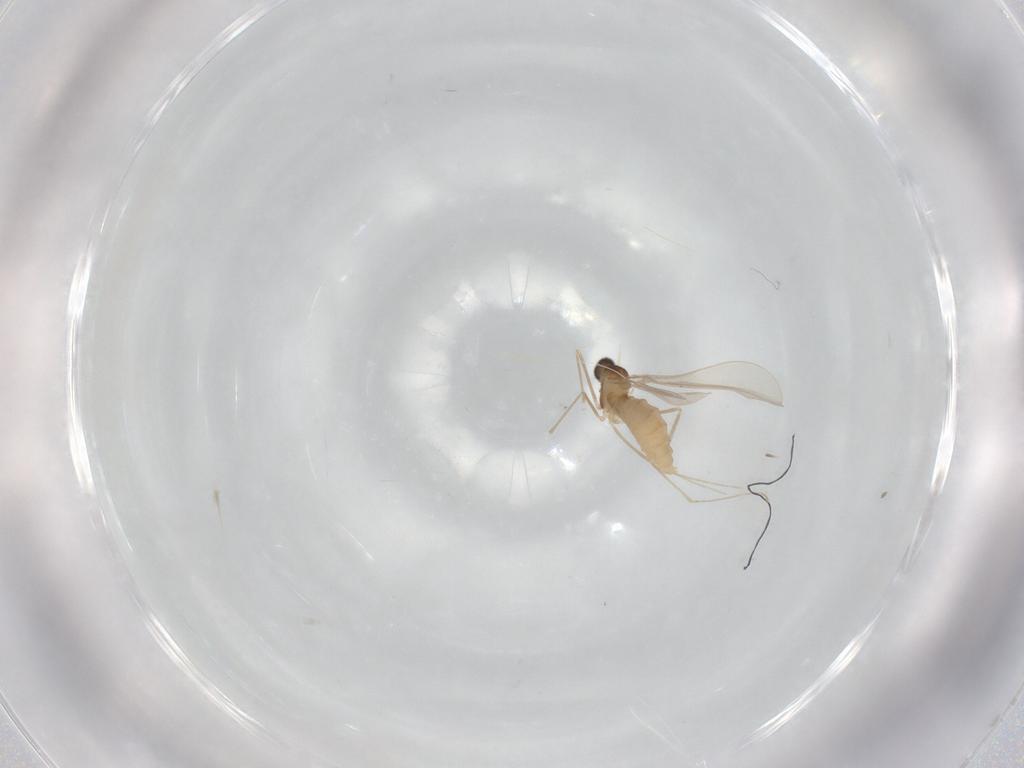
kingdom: Animalia
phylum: Arthropoda
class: Insecta
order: Diptera
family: Cecidomyiidae
